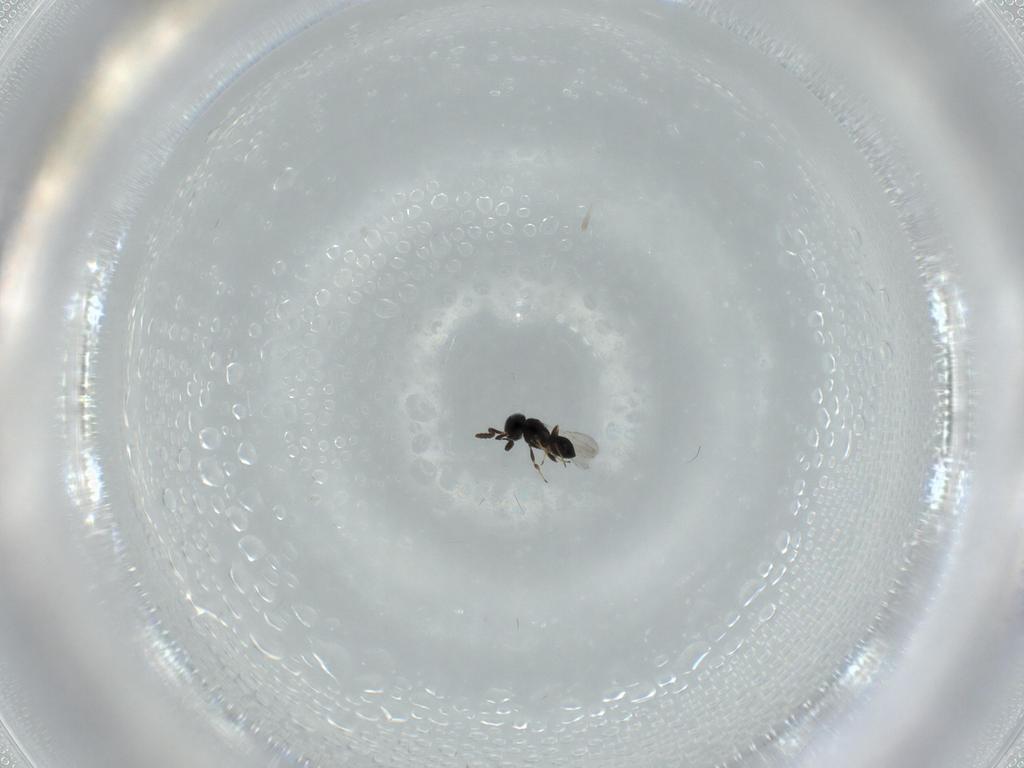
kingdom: Animalia
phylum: Arthropoda
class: Insecta
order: Hymenoptera
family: Scelionidae
